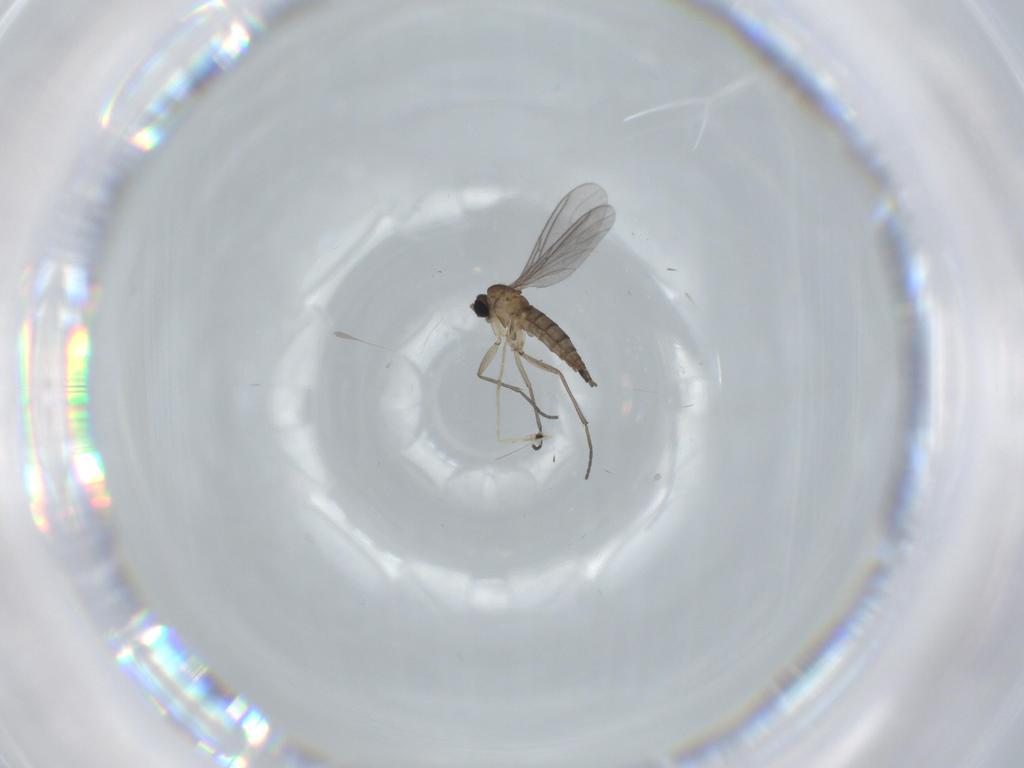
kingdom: Animalia
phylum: Arthropoda
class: Insecta
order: Diptera
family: Sciaridae
